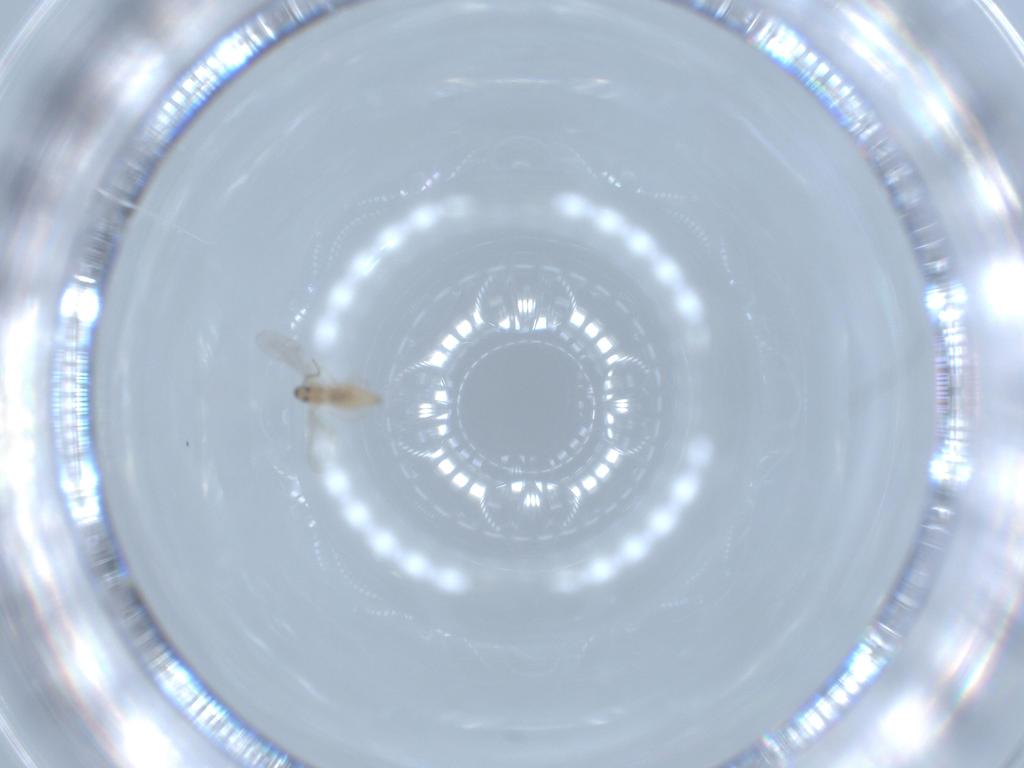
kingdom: Animalia
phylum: Arthropoda
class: Insecta
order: Diptera
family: Cecidomyiidae
